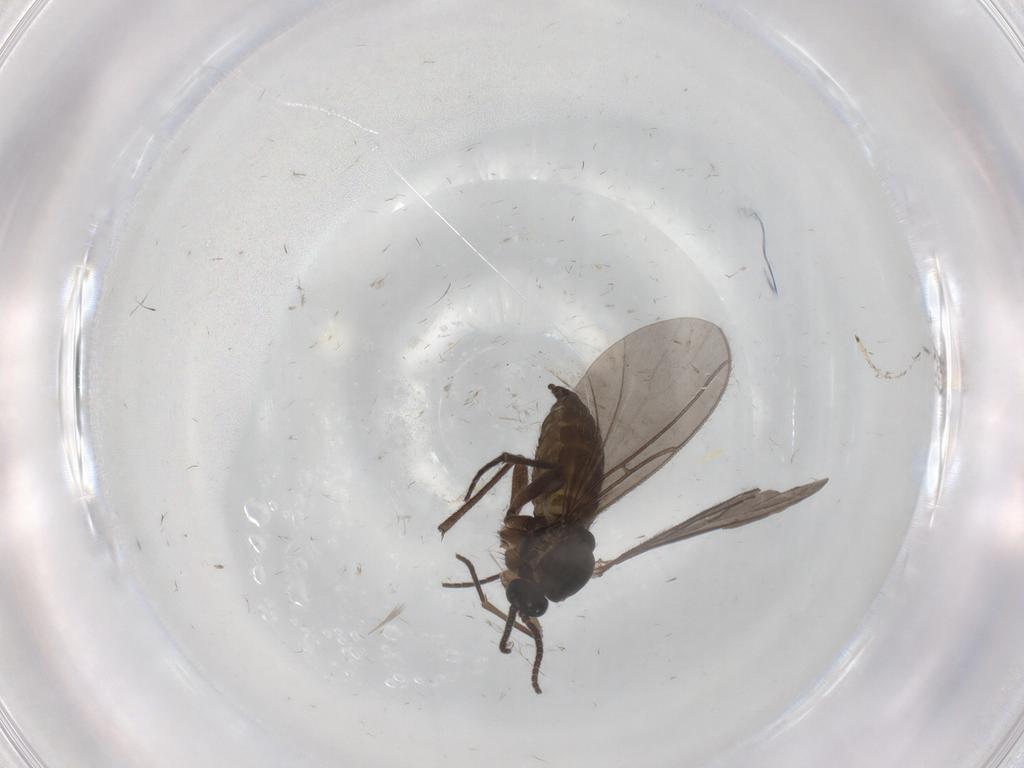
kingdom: Animalia
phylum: Arthropoda
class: Insecta
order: Diptera
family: Sciaridae
